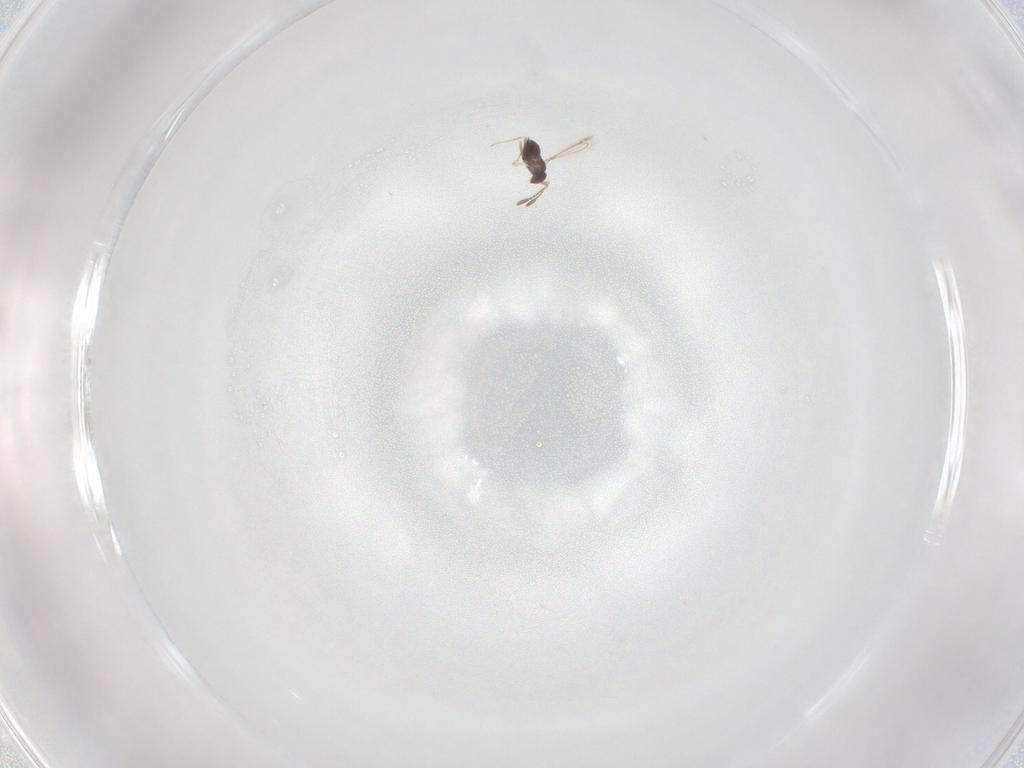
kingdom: Animalia
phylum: Arthropoda
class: Insecta
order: Hymenoptera
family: Mymaridae
